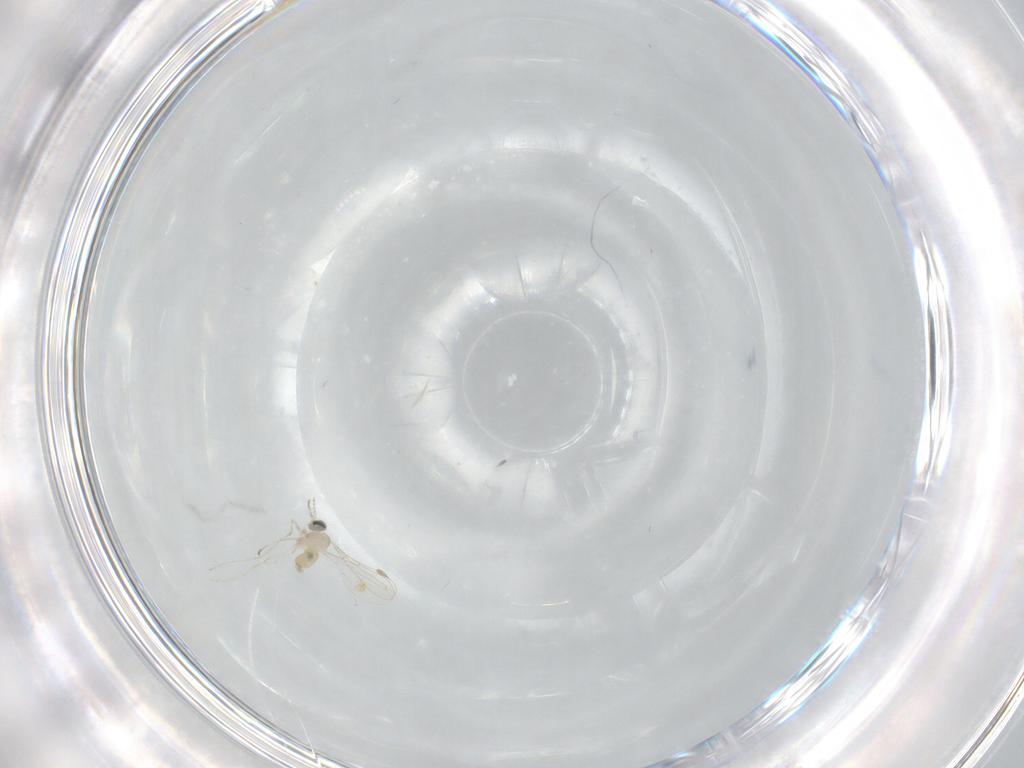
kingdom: Animalia
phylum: Arthropoda
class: Insecta
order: Diptera
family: Cecidomyiidae
